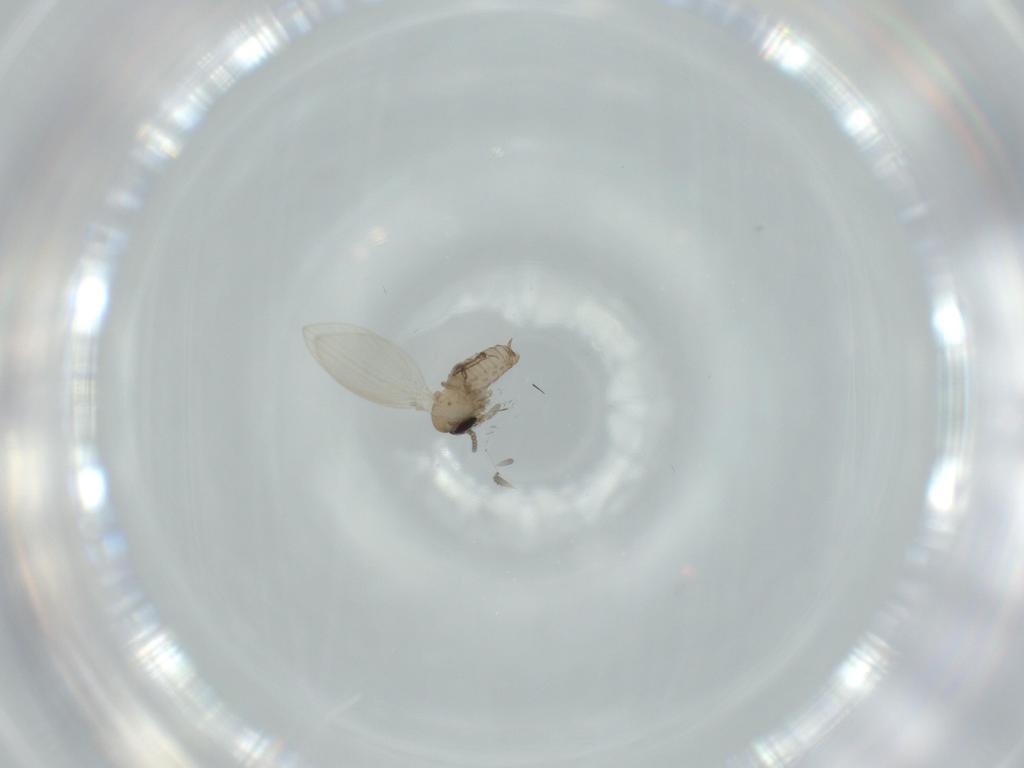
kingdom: Animalia
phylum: Arthropoda
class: Insecta
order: Diptera
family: Psychodidae
